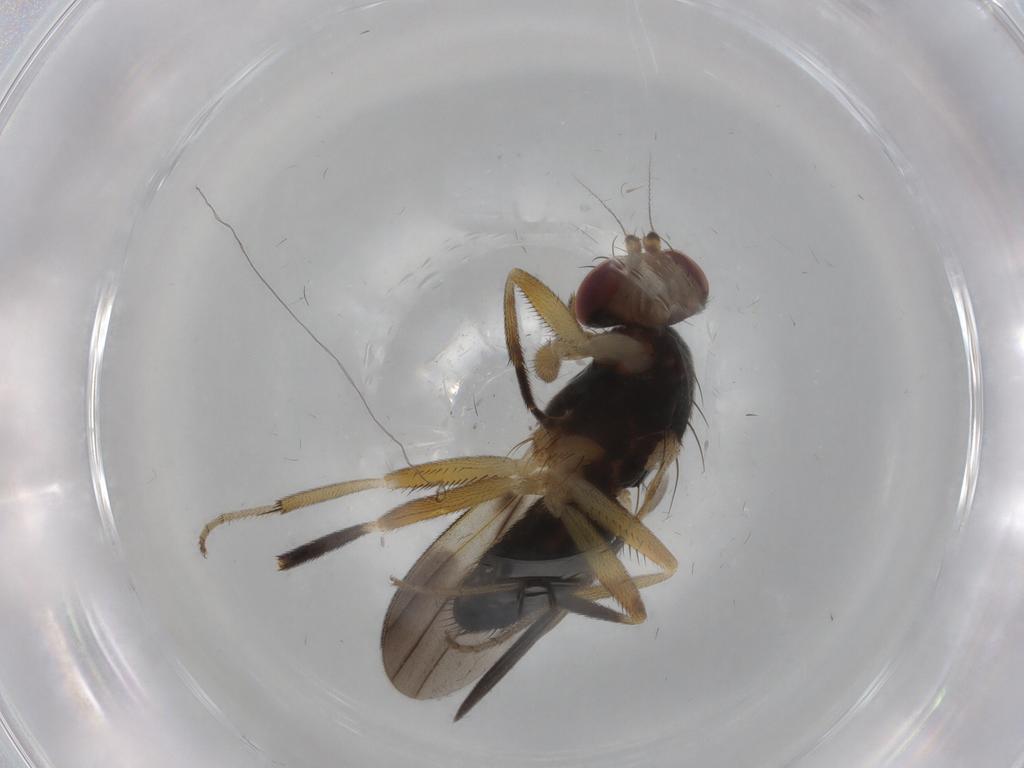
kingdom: Animalia
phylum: Arthropoda
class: Insecta
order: Diptera
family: Clusiidae
